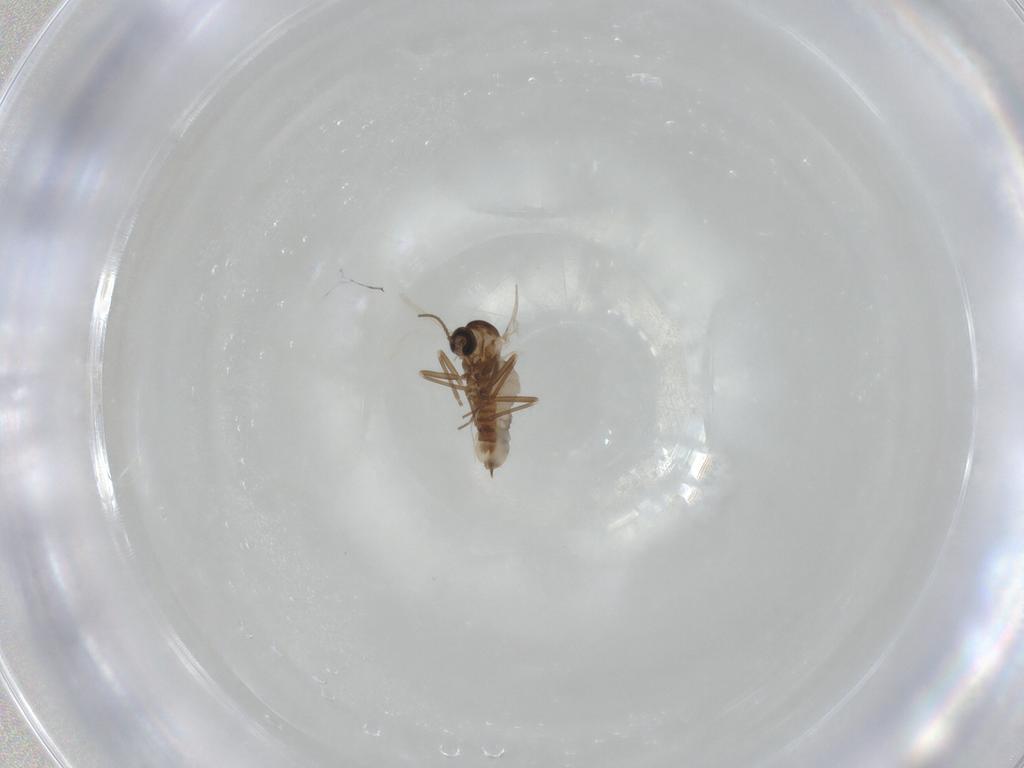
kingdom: Animalia
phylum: Arthropoda
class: Insecta
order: Diptera
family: Cecidomyiidae
